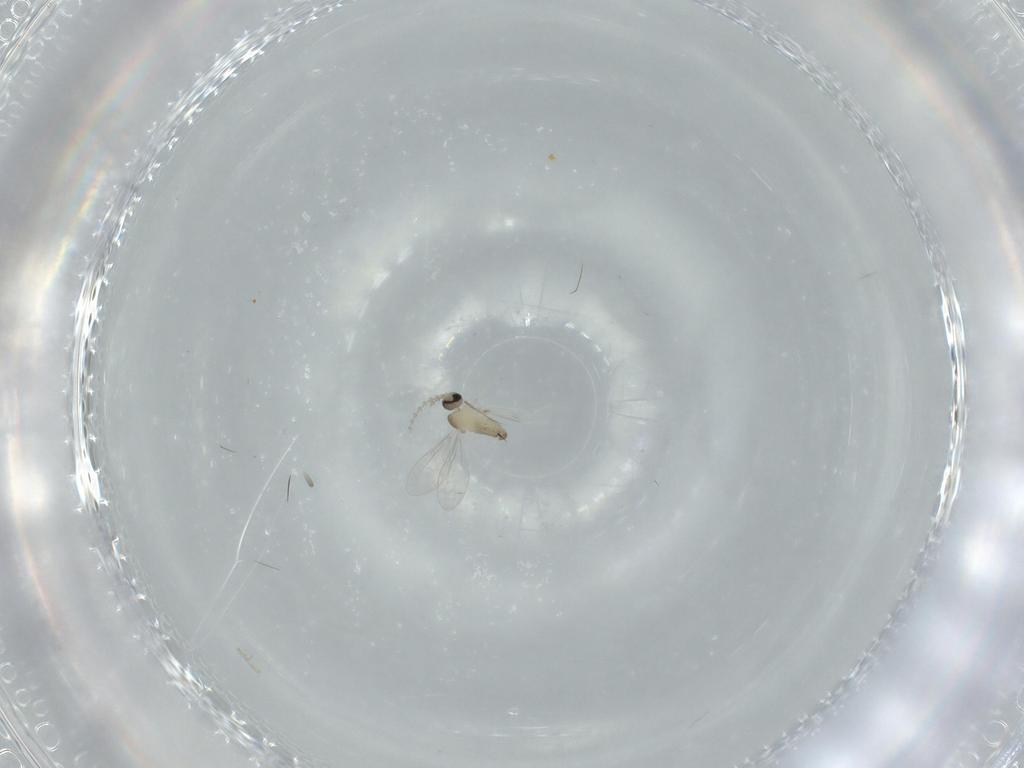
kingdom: Animalia
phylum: Arthropoda
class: Insecta
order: Diptera
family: Cecidomyiidae
